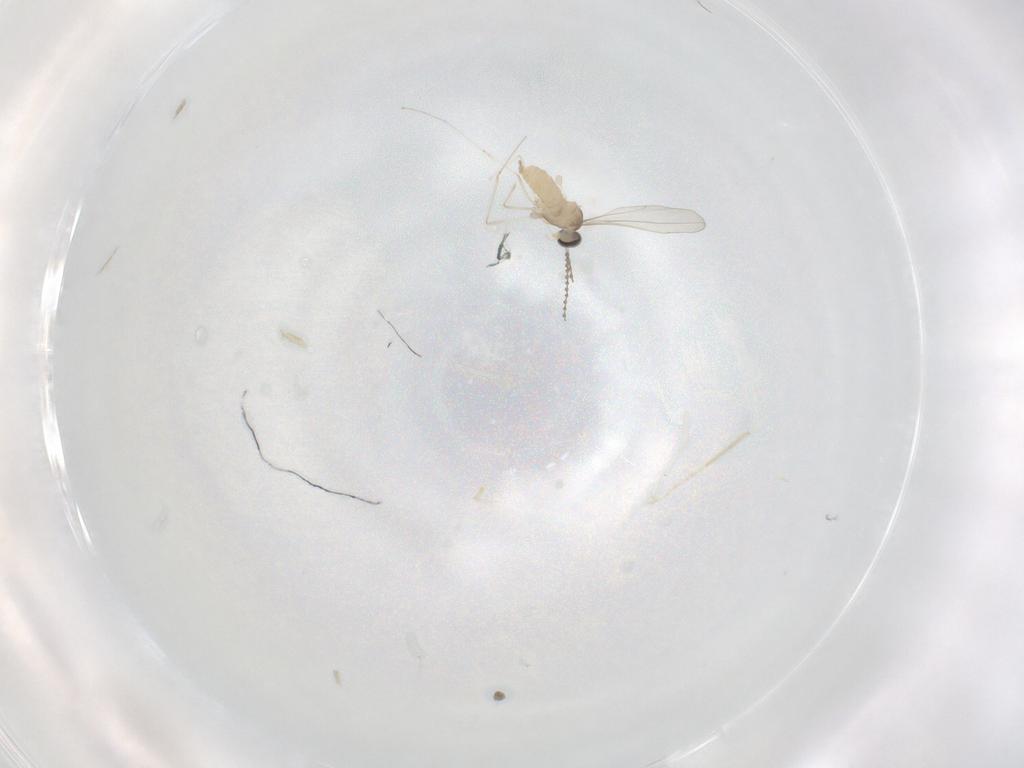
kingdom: Animalia
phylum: Arthropoda
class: Insecta
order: Diptera
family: Cecidomyiidae
